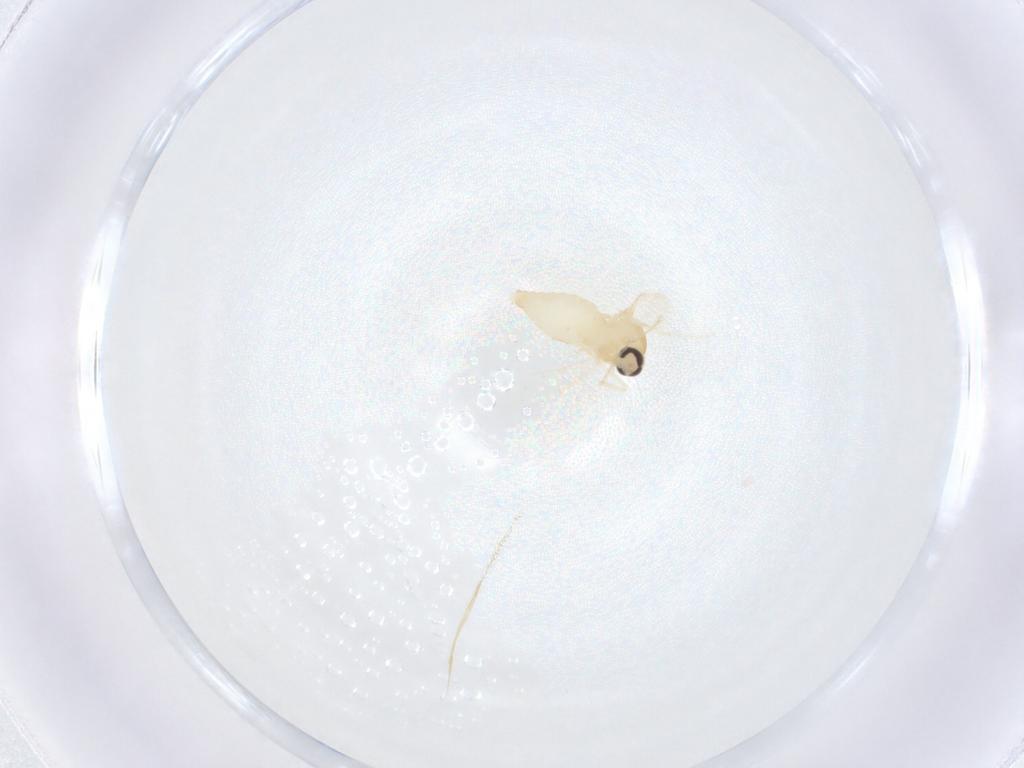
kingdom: Animalia
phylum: Arthropoda
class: Insecta
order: Diptera
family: Ceratopogonidae
